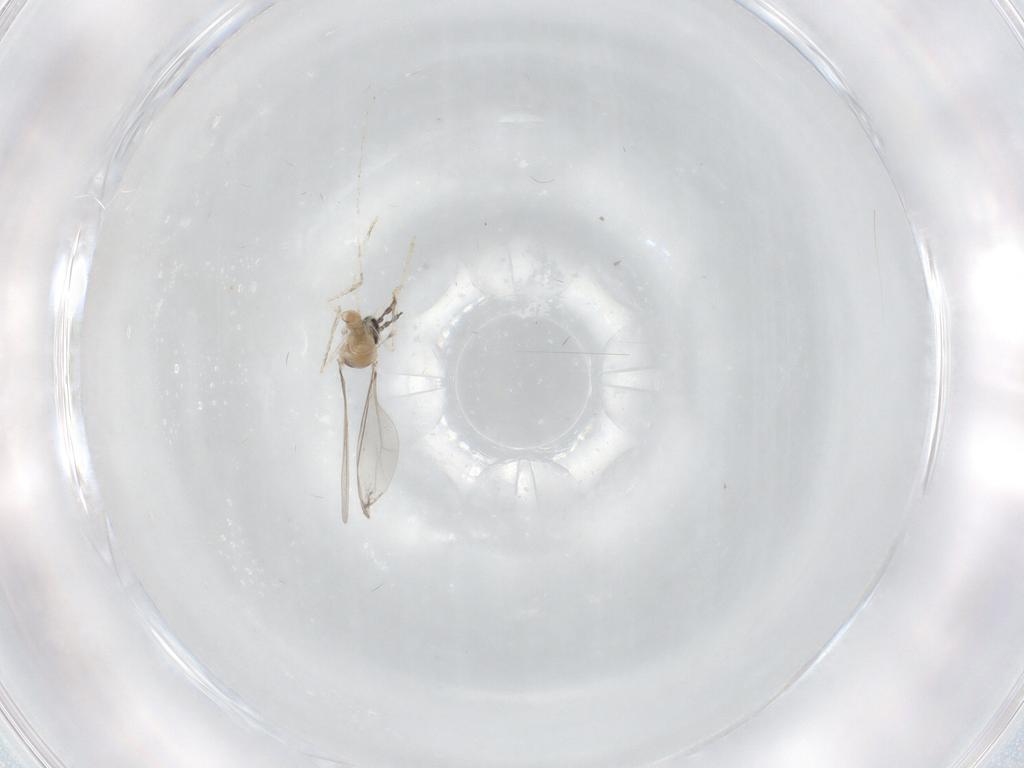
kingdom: Animalia
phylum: Arthropoda
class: Insecta
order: Diptera
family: Cecidomyiidae
